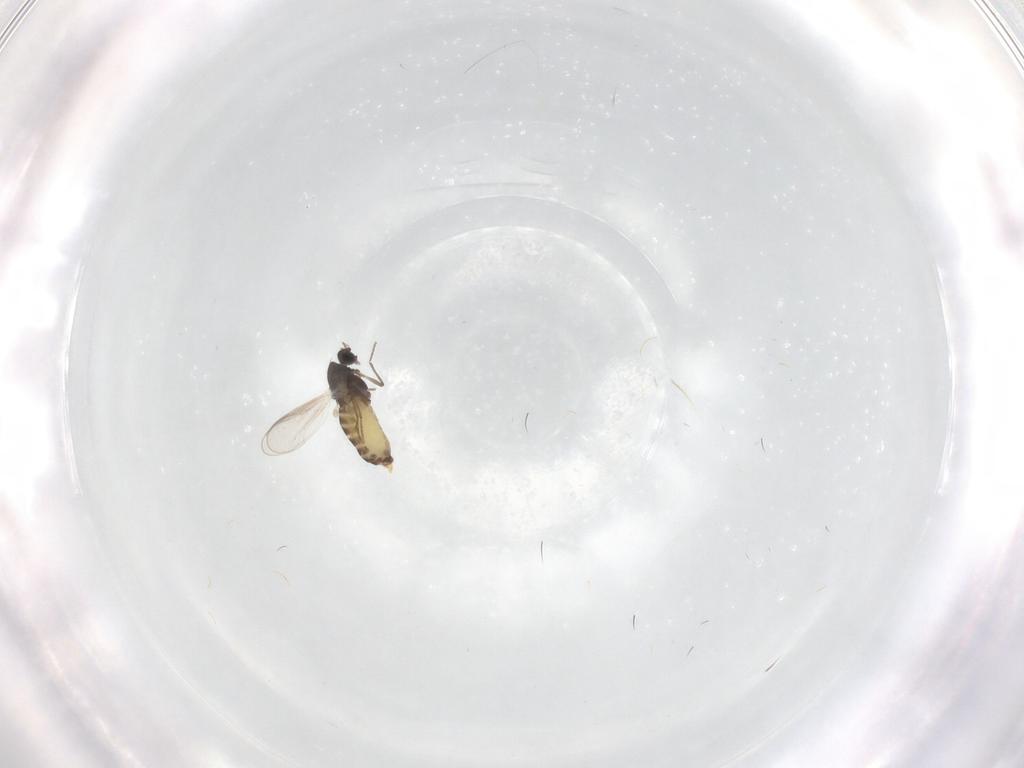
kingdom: Animalia
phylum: Arthropoda
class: Insecta
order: Diptera
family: Chironomidae
